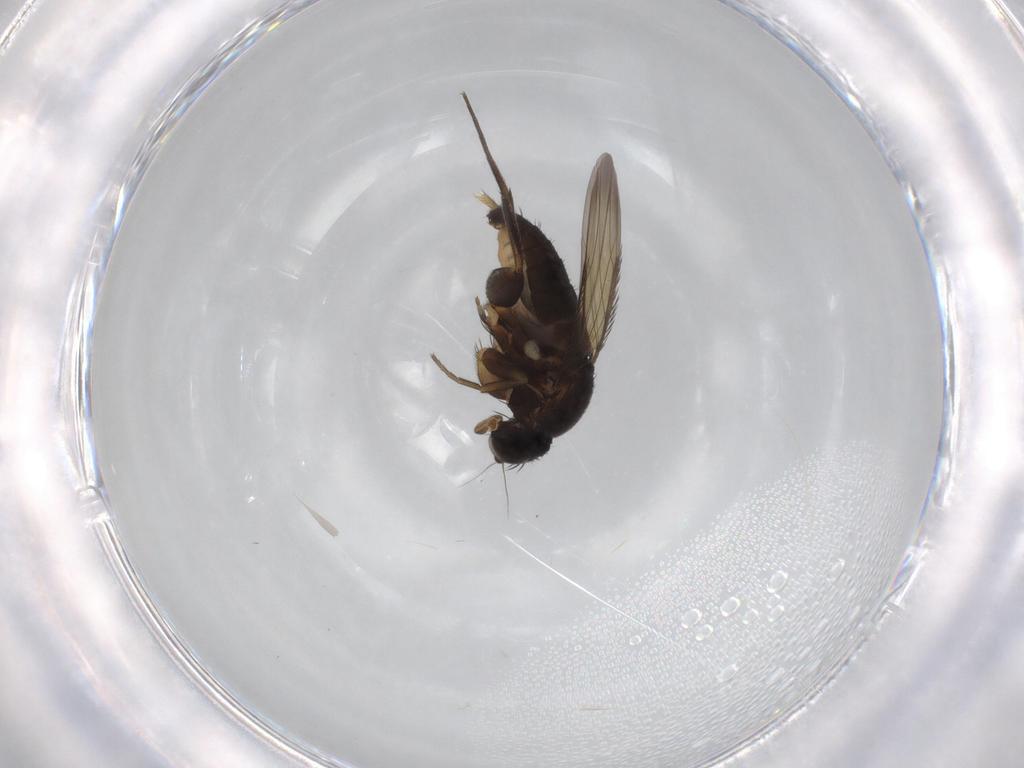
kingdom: Animalia
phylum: Arthropoda
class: Insecta
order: Diptera
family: Phoridae
